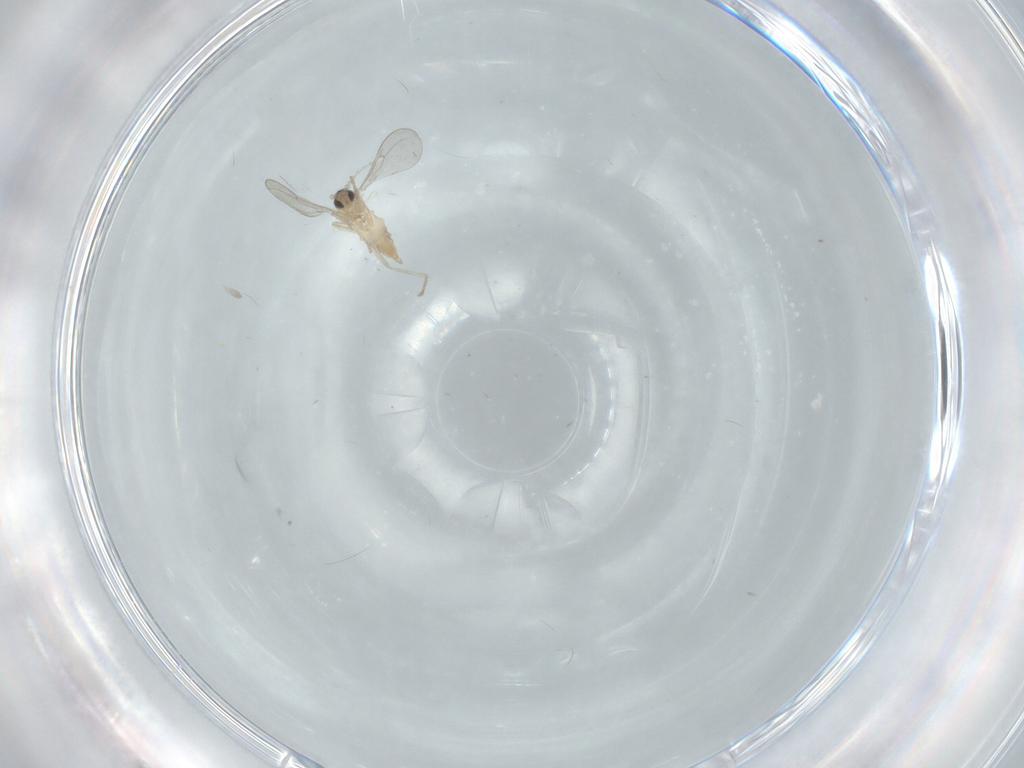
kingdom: Animalia
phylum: Arthropoda
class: Insecta
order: Diptera
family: Cecidomyiidae
